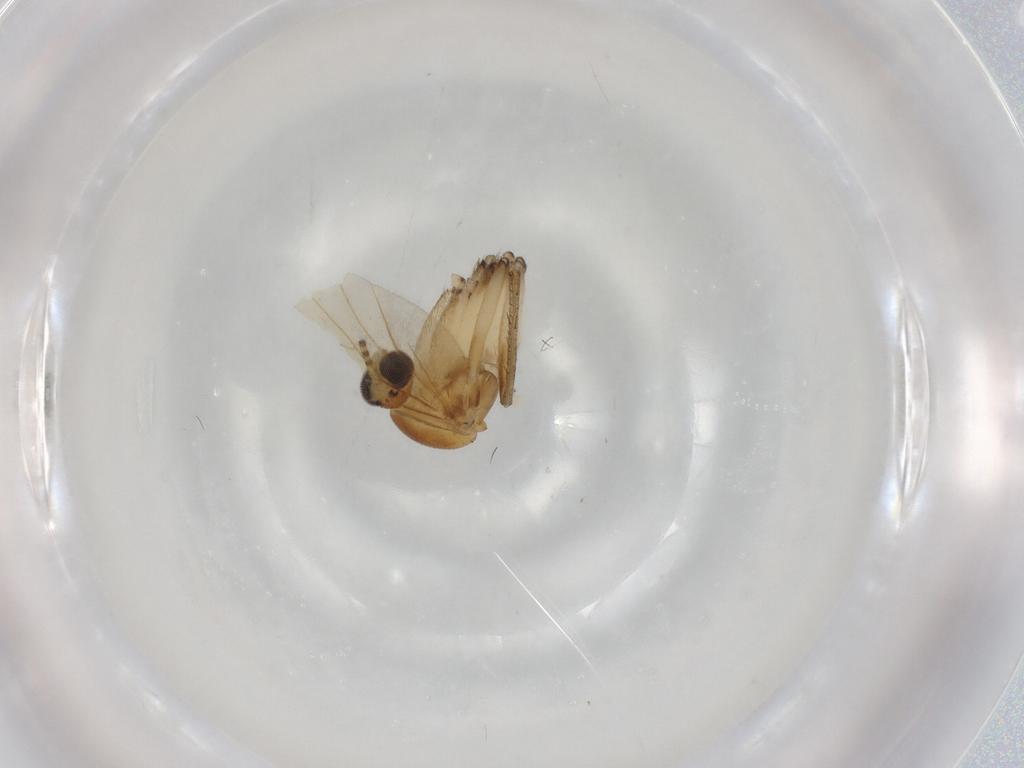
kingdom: Animalia
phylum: Arthropoda
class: Insecta
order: Diptera
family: Sciaridae
